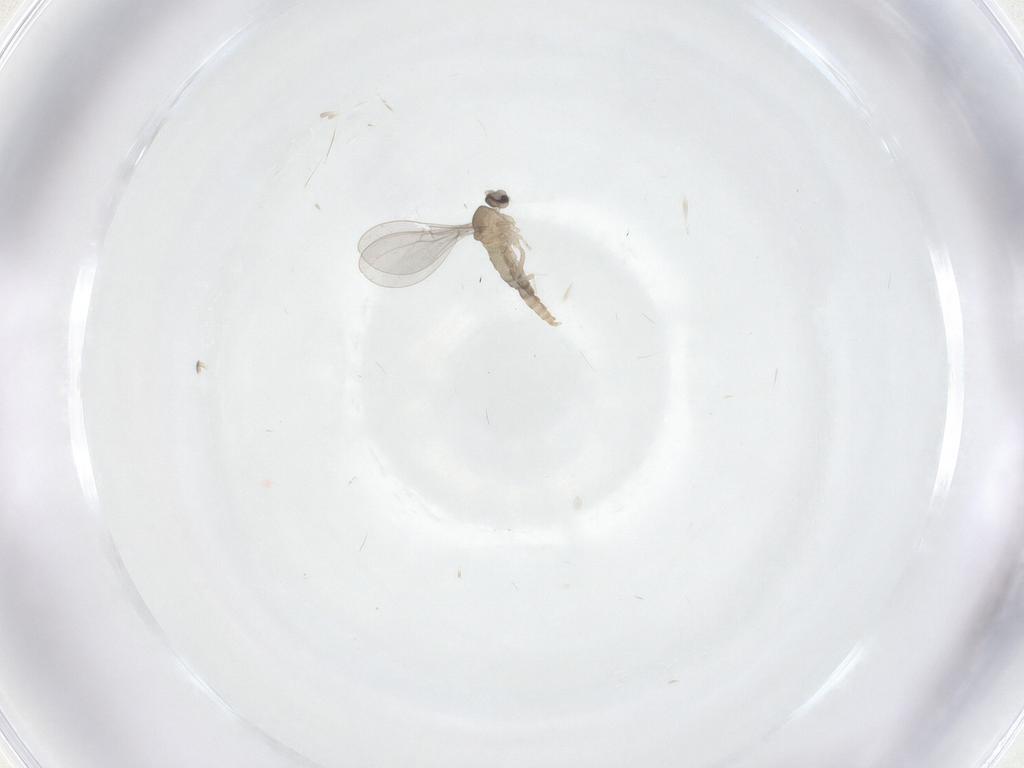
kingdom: Animalia
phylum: Arthropoda
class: Insecta
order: Diptera
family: Cecidomyiidae
